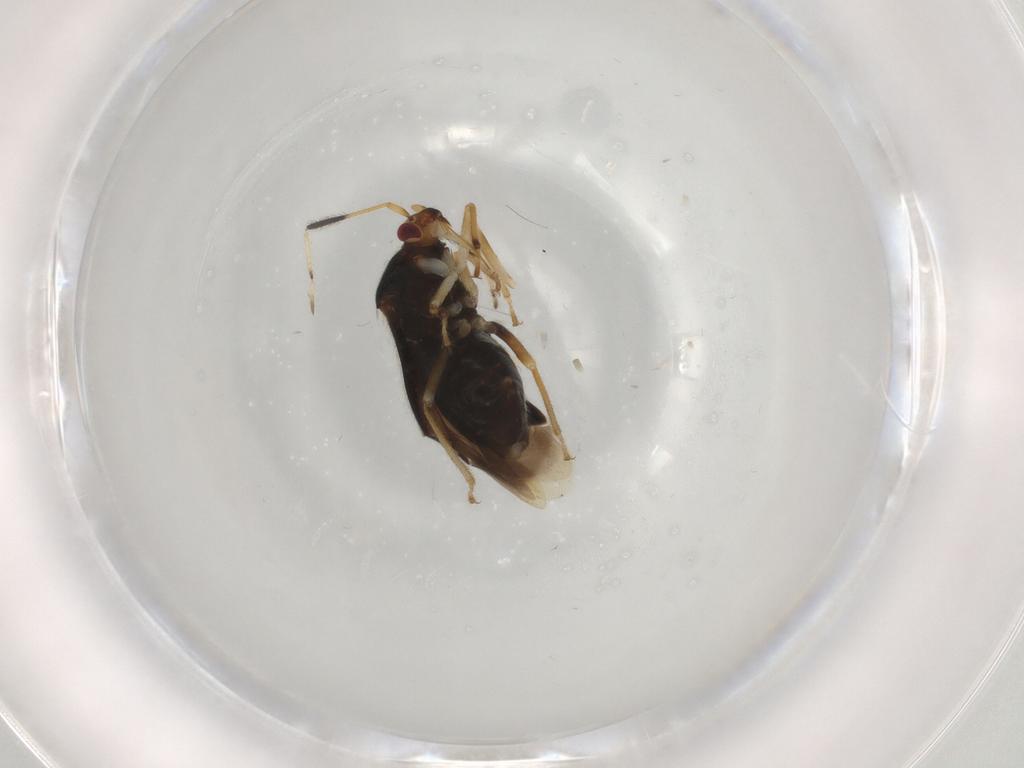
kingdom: Animalia
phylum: Arthropoda
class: Insecta
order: Hemiptera
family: Miridae
